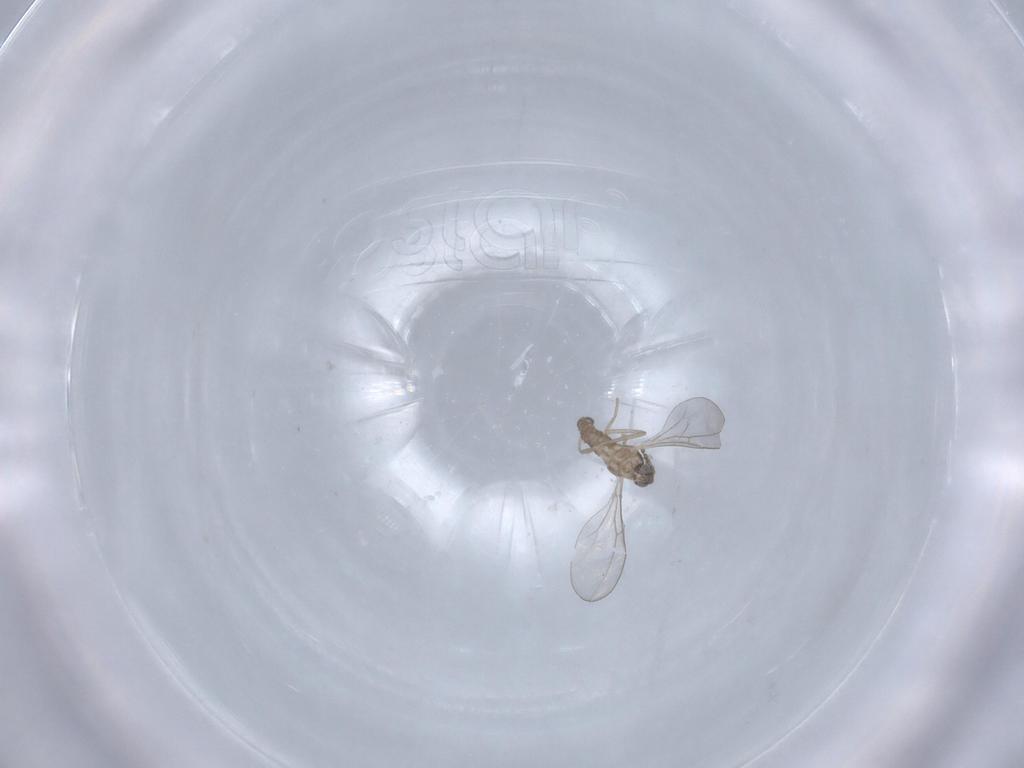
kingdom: Animalia
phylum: Arthropoda
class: Insecta
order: Diptera
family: Cecidomyiidae
